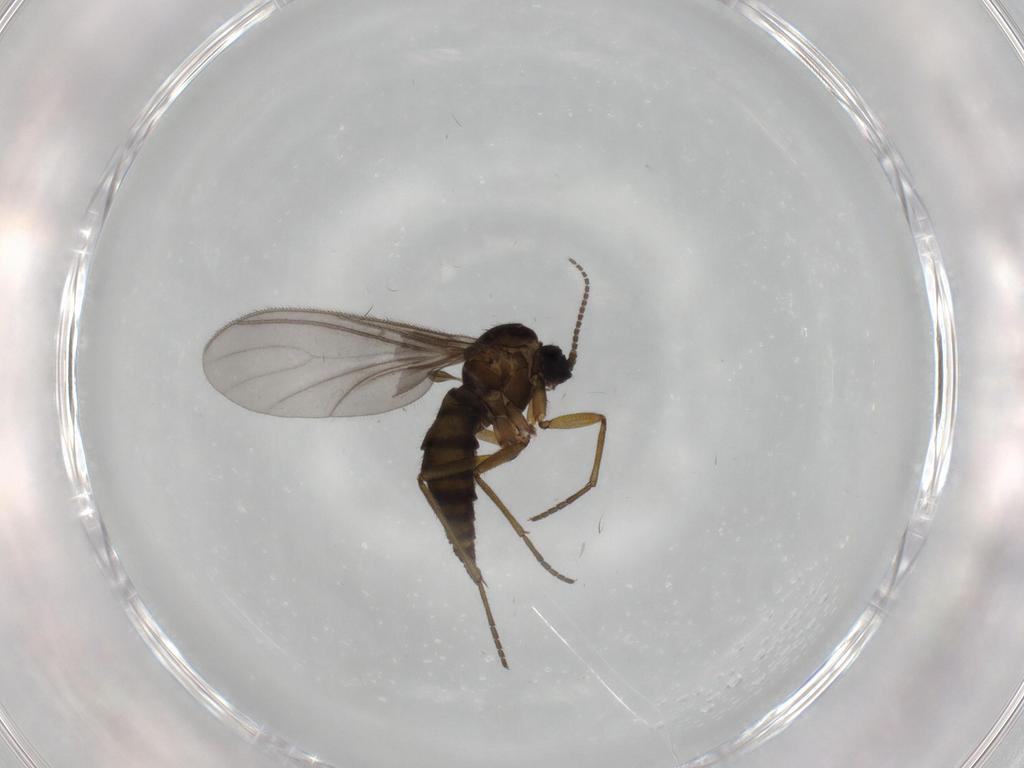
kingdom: Animalia
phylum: Arthropoda
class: Insecta
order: Diptera
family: Sciaridae
